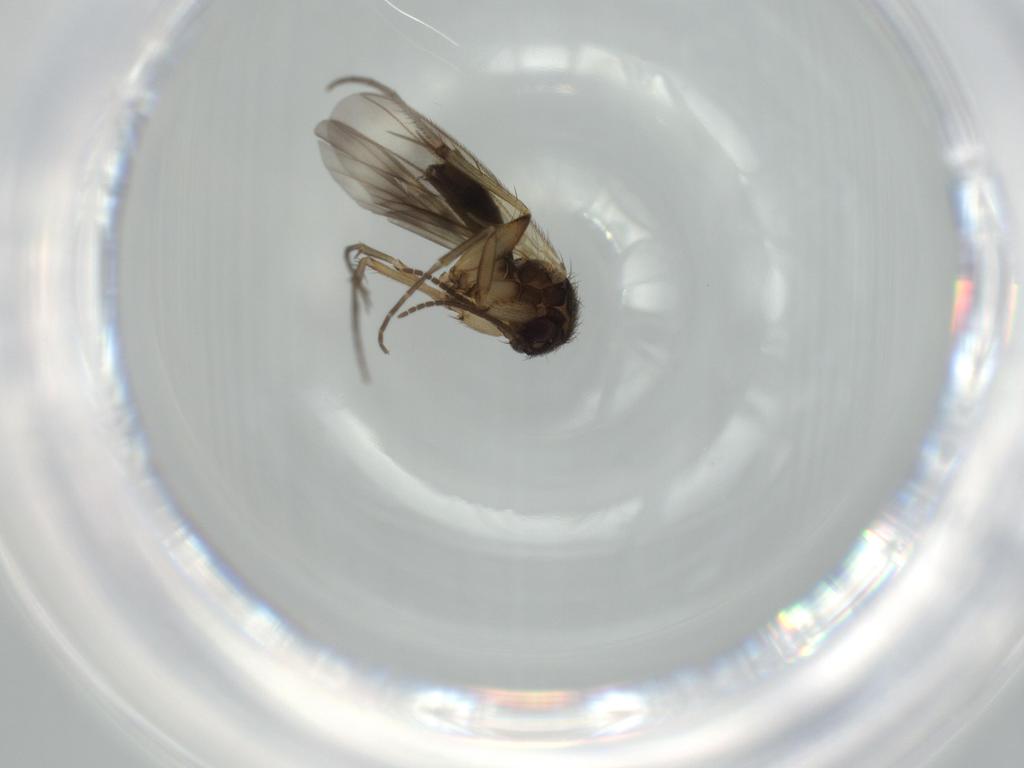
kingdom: Animalia
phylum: Arthropoda
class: Insecta
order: Diptera
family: Mycetophilidae
